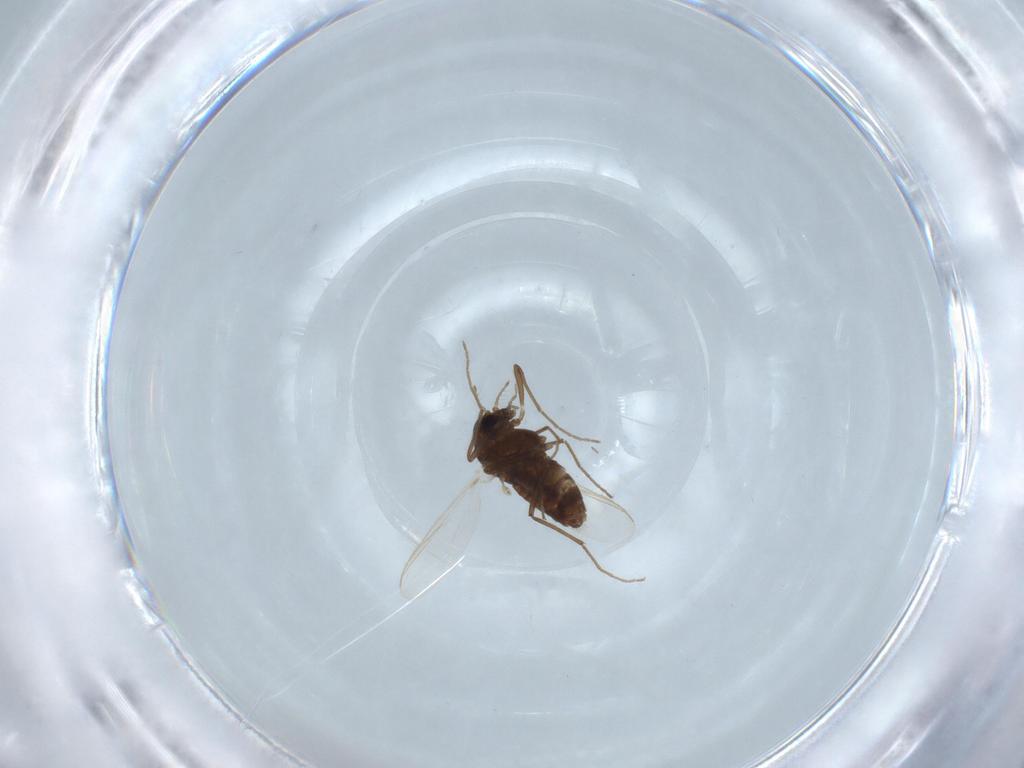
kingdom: Animalia
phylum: Arthropoda
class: Insecta
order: Diptera
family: Chironomidae
